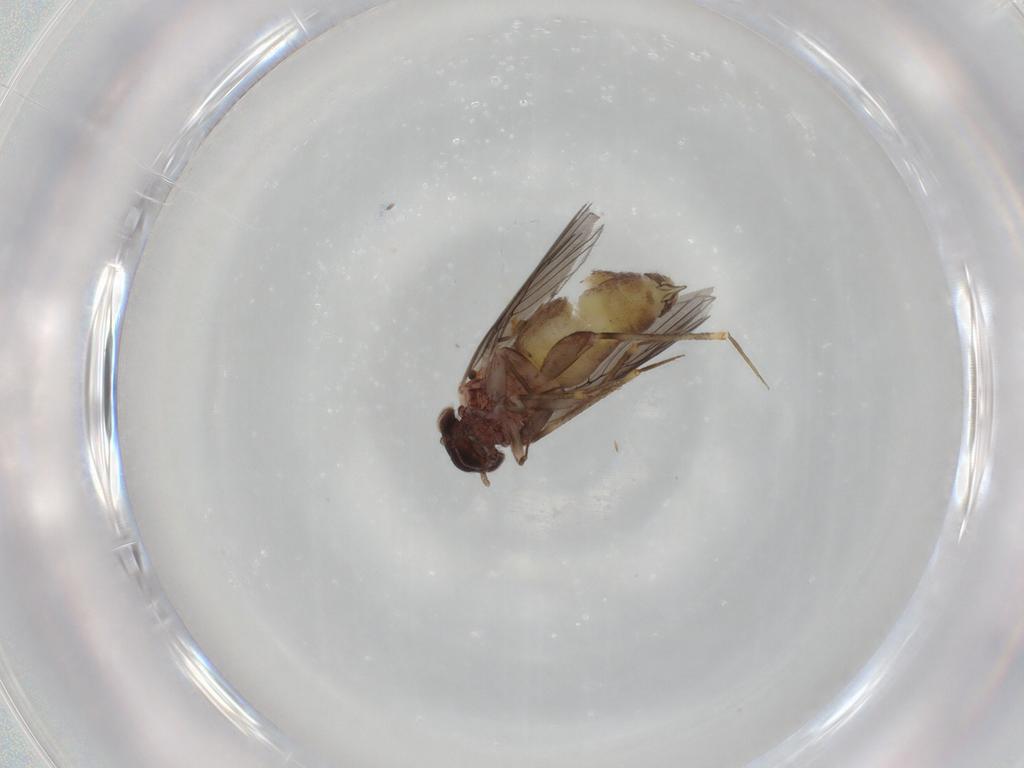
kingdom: Animalia
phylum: Arthropoda
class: Insecta
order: Psocodea
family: Lepidopsocidae
